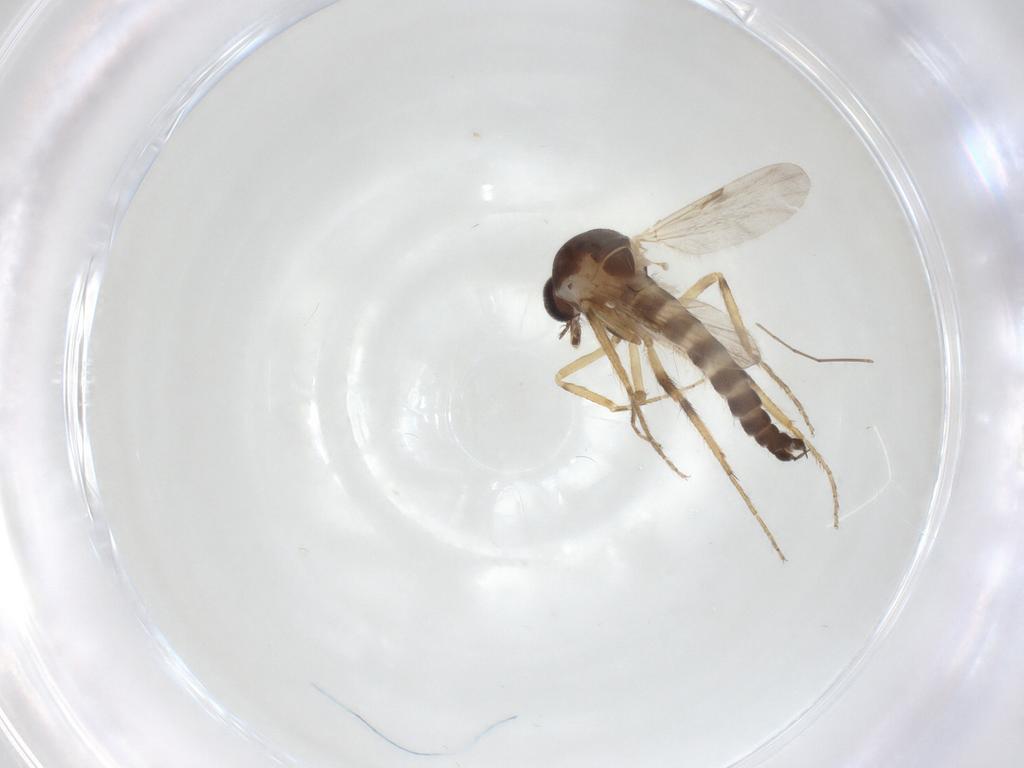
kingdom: Animalia
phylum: Arthropoda
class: Insecta
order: Diptera
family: Ceratopogonidae
